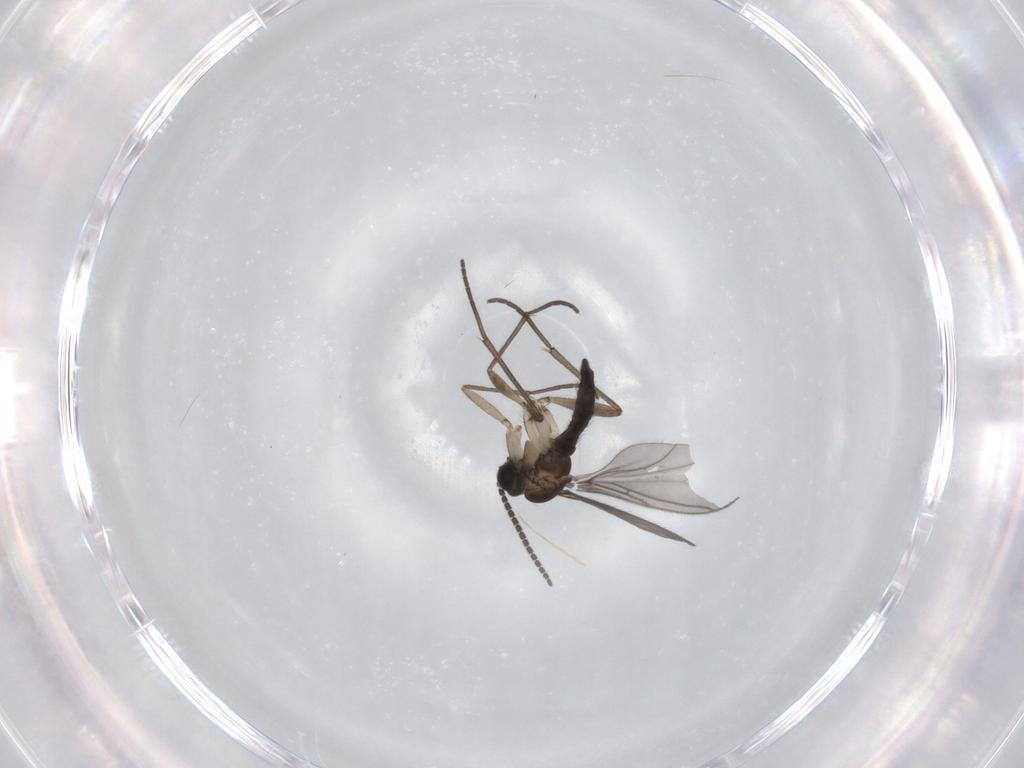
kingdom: Animalia
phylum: Arthropoda
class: Insecta
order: Diptera
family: Sciaridae
